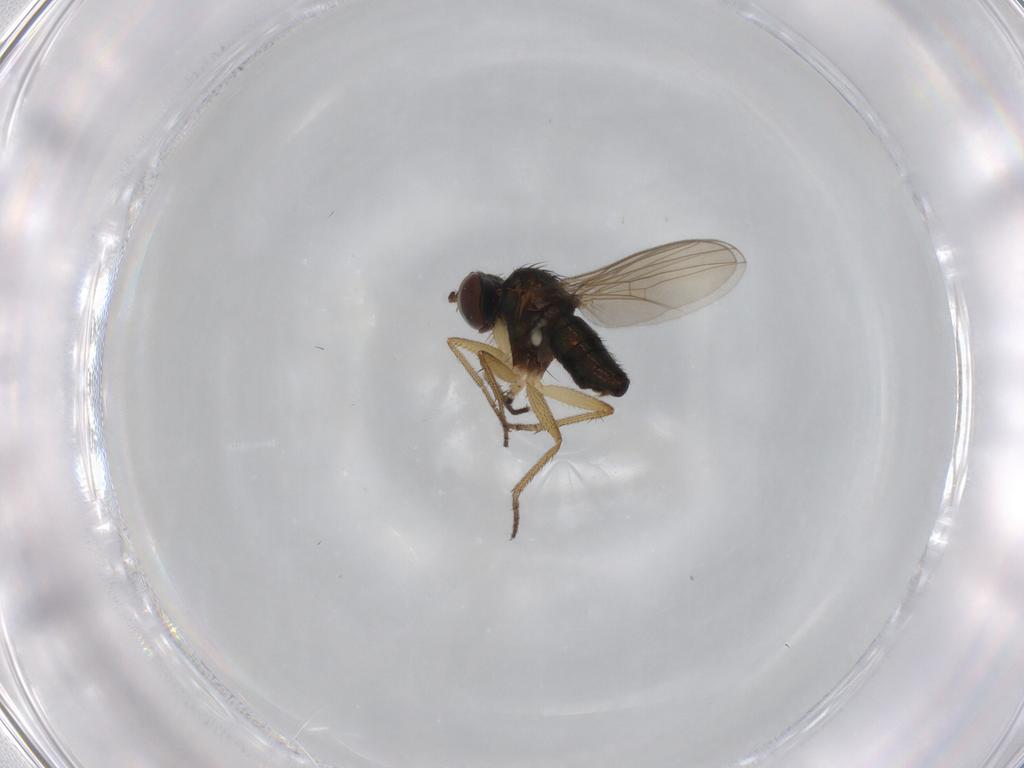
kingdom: Animalia
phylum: Arthropoda
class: Insecta
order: Diptera
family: Dolichopodidae
